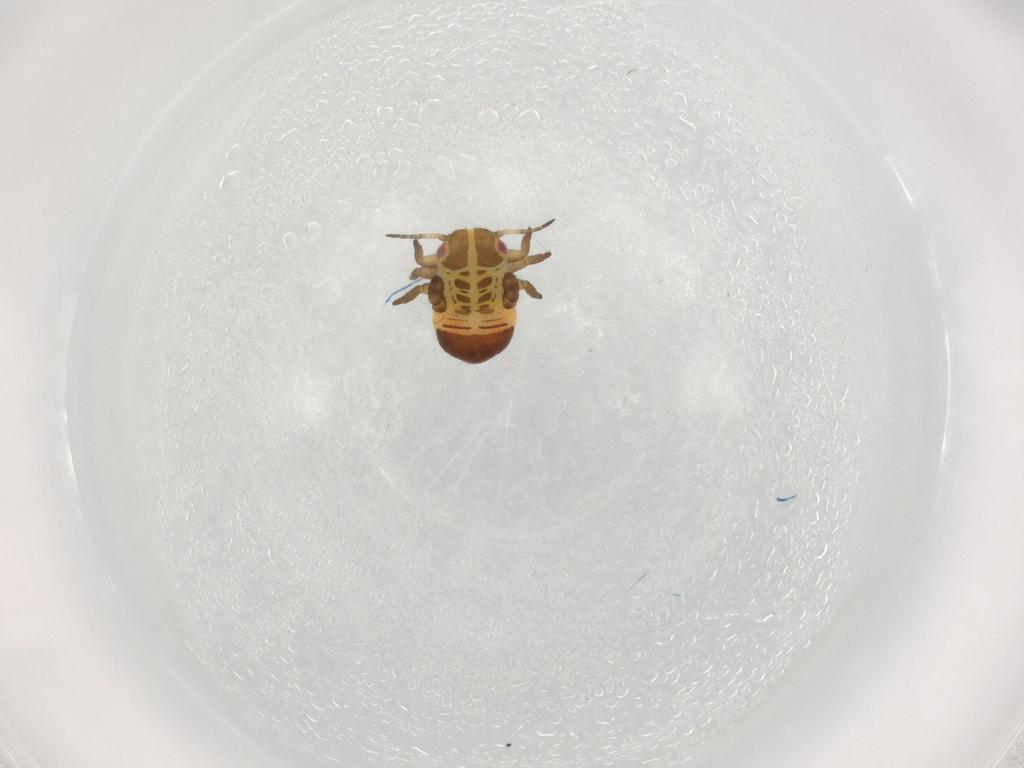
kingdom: Animalia
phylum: Arthropoda
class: Insecta
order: Hemiptera
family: Psyllidae
